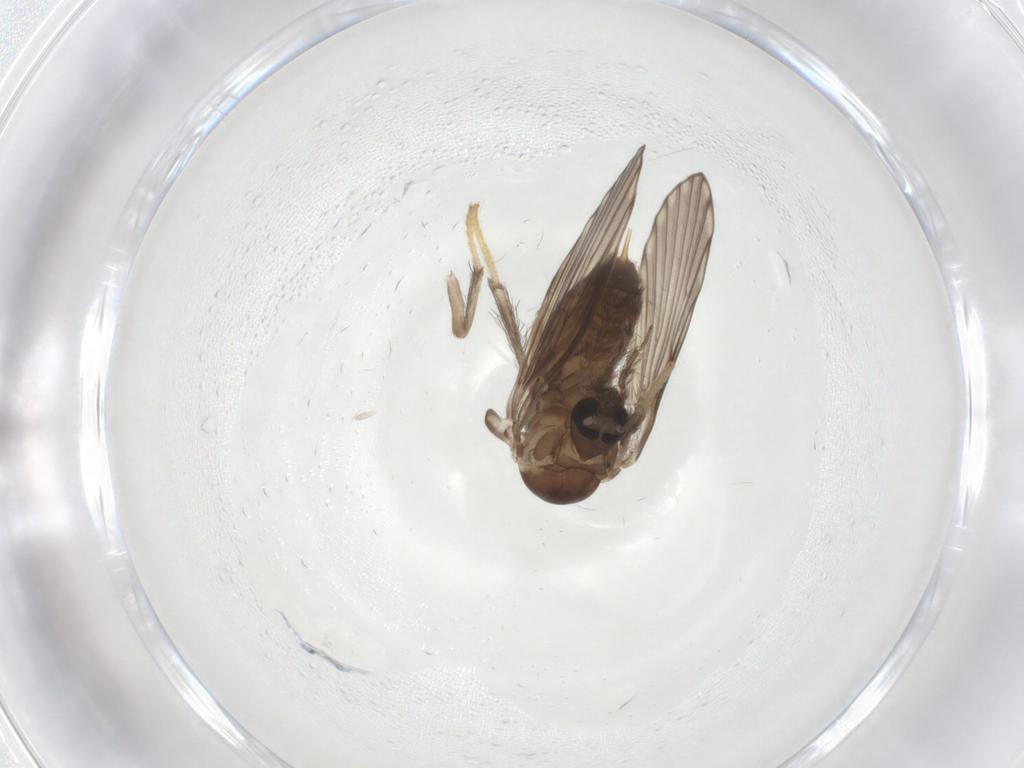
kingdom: Animalia
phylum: Arthropoda
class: Insecta
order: Diptera
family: Psychodidae
